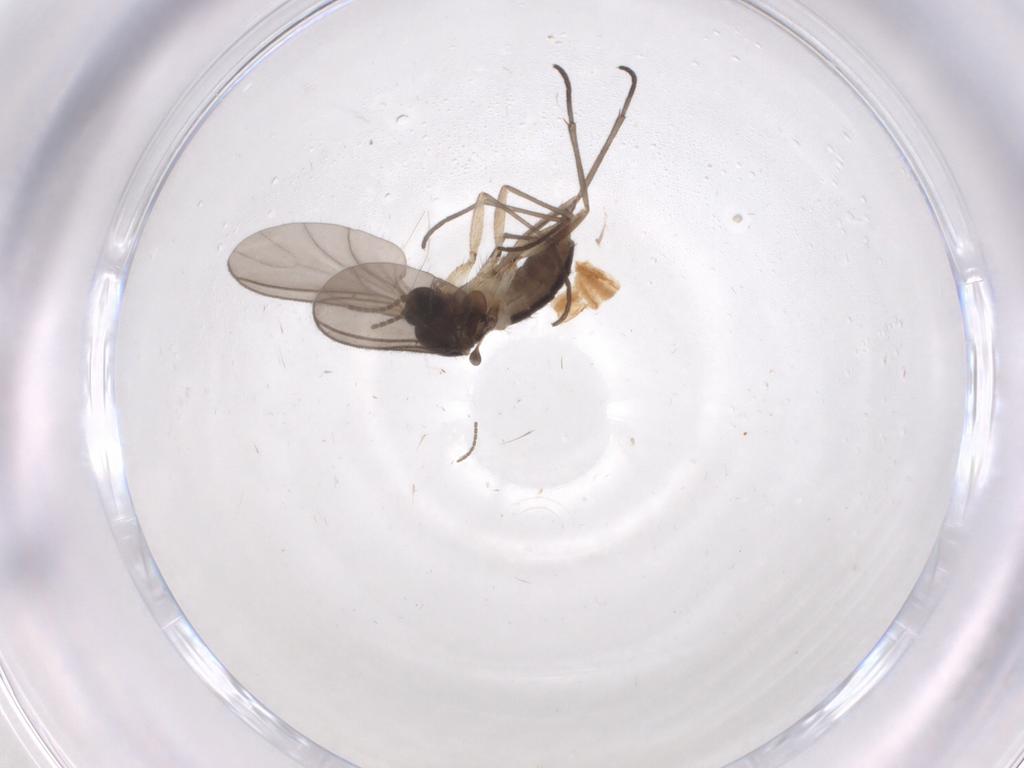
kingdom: Animalia
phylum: Arthropoda
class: Insecta
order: Diptera
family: Sciaridae
